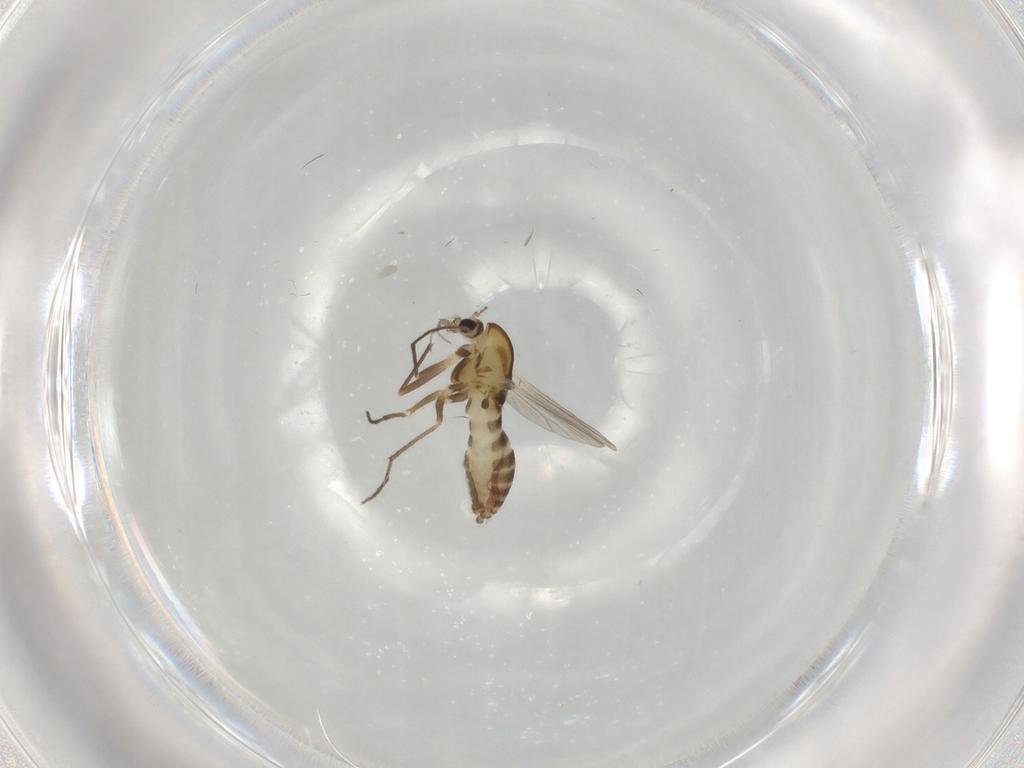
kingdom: Animalia
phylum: Arthropoda
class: Insecta
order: Diptera
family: Chironomidae
